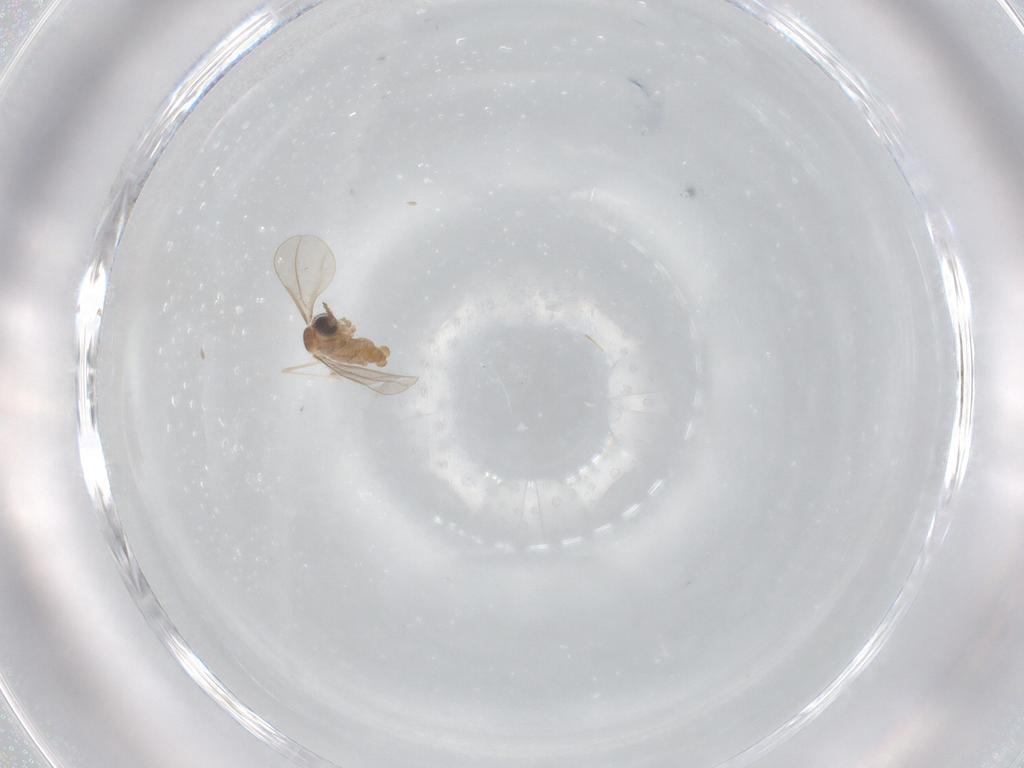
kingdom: Animalia
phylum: Arthropoda
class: Insecta
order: Diptera
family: Cecidomyiidae
